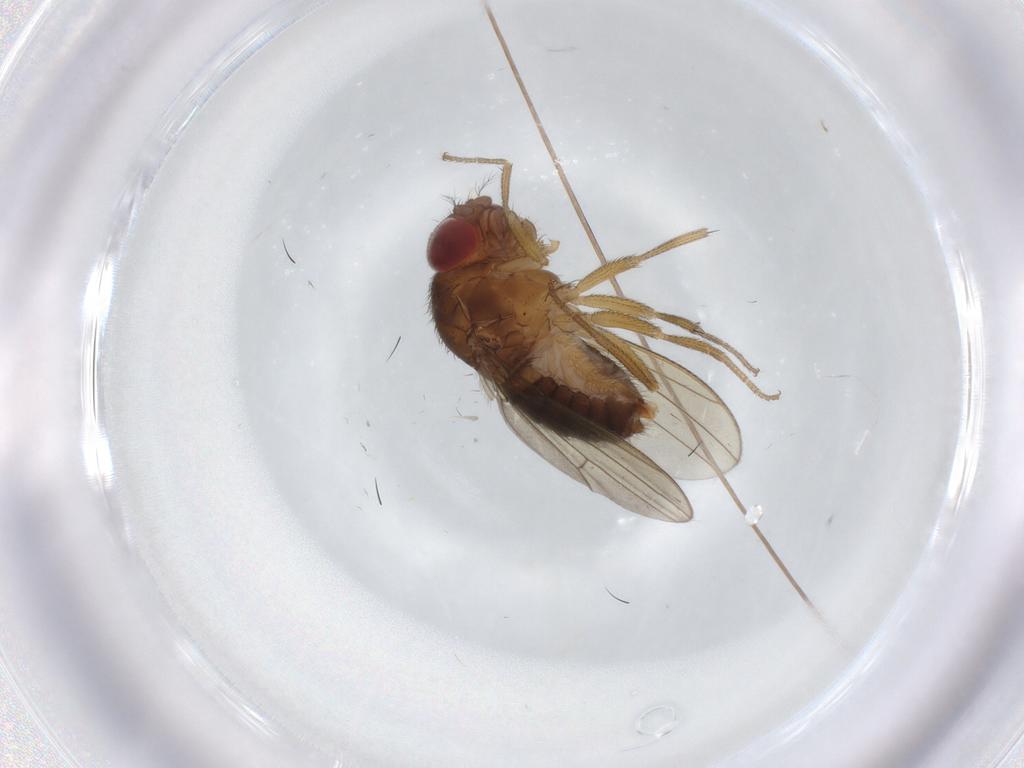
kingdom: Animalia
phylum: Arthropoda
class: Insecta
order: Diptera
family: Drosophilidae
